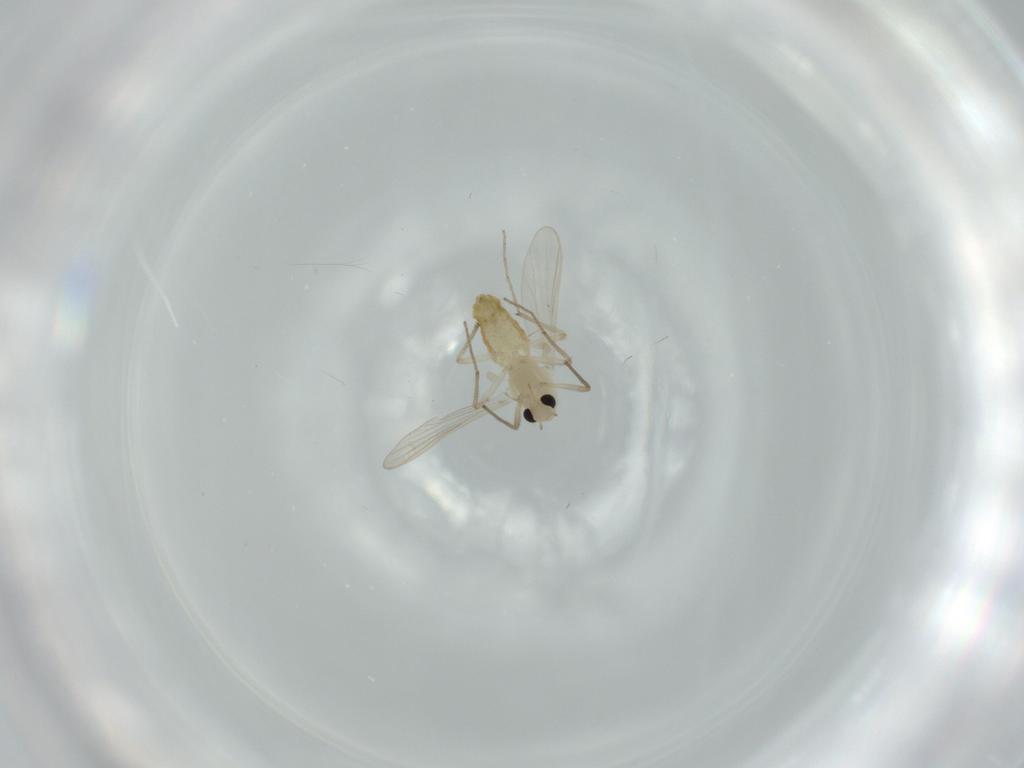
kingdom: Animalia
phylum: Arthropoda
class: Insecta
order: Diptera
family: Chironomidae
